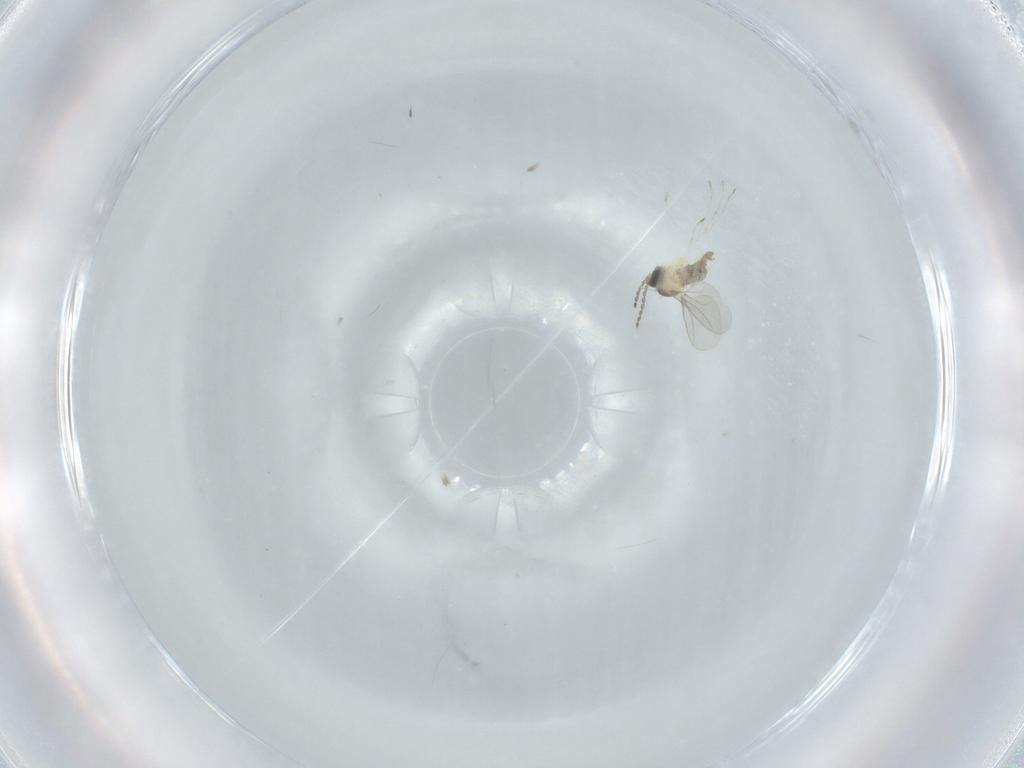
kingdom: Animalia
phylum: Arthropoda
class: Insecta
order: Diptera
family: Cecidomyiidae
